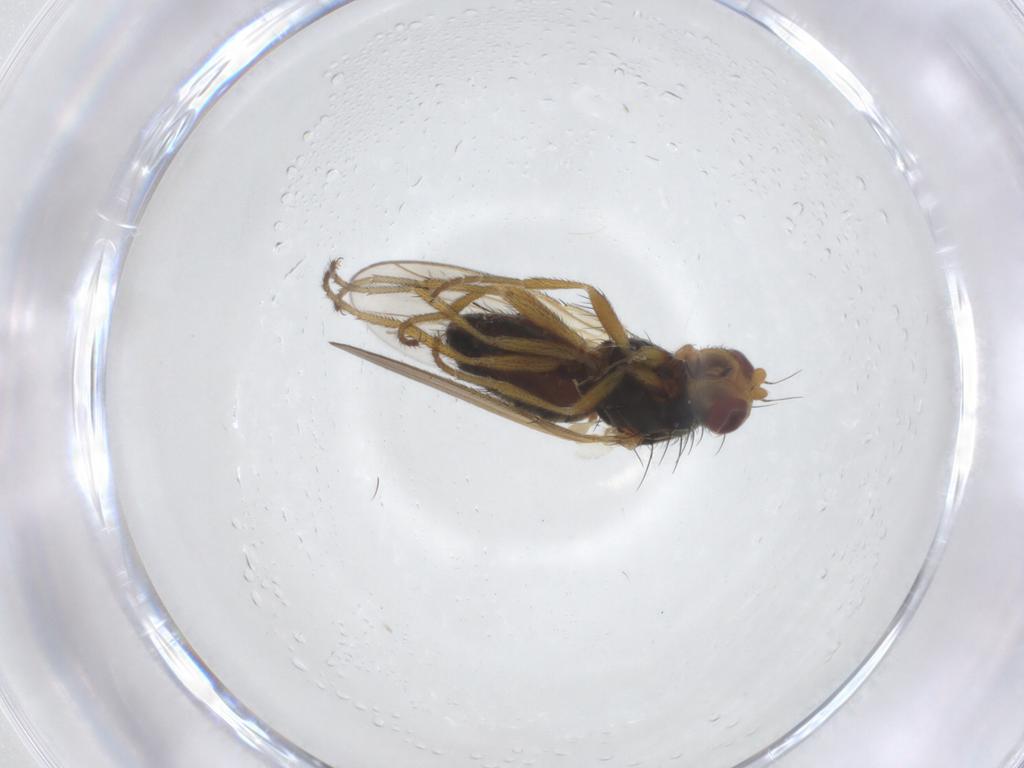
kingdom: Animalia
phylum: Arthropoda
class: Insecta
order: Diptera
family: Heleomyzidae
